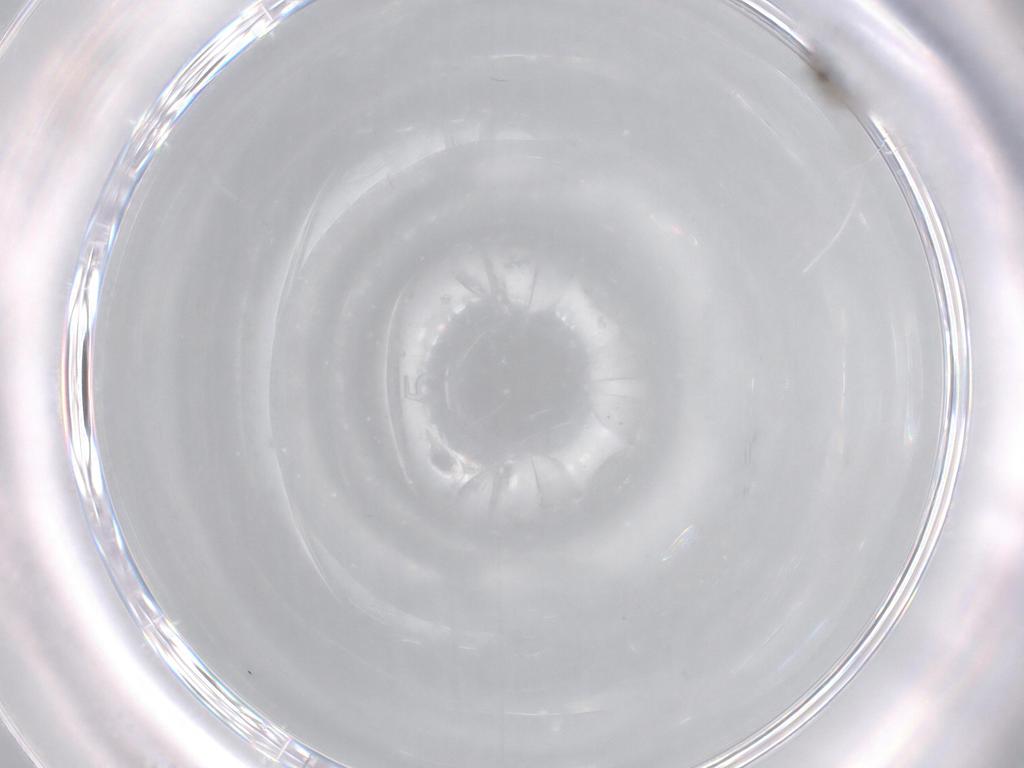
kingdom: Animalia
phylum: Arthropoda
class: Insecta
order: Diptera
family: Cecidomyiidae
